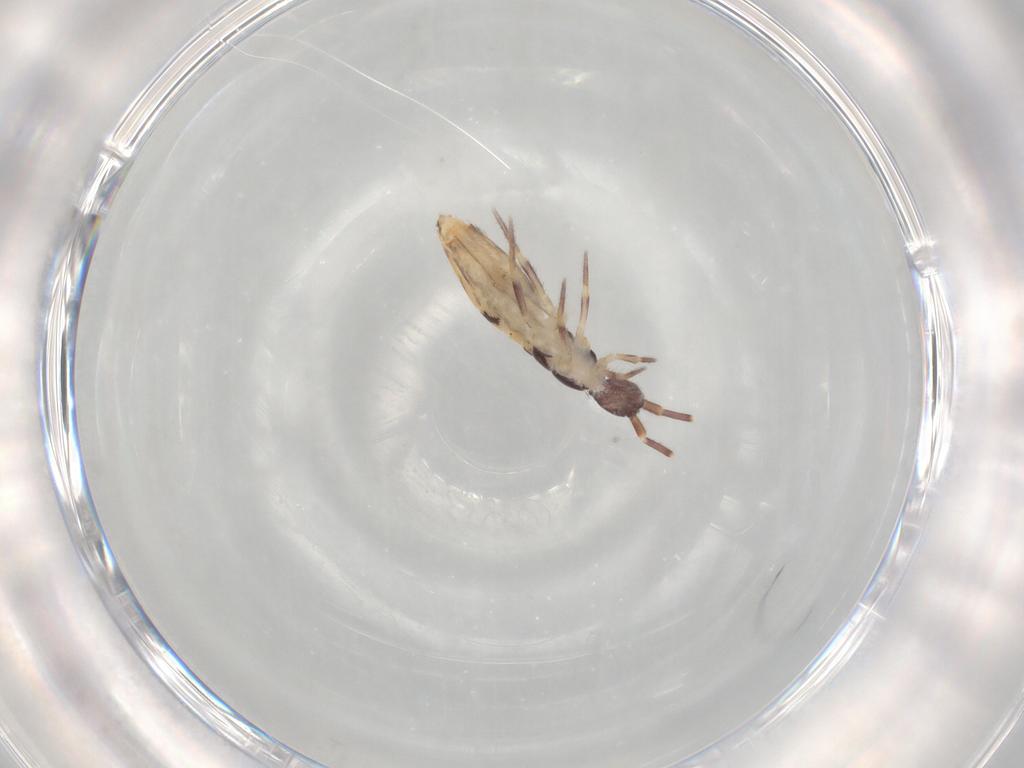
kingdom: Animalia
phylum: Arthropoda
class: Collembola
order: Entomobryomorpha
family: Entomobryidae
